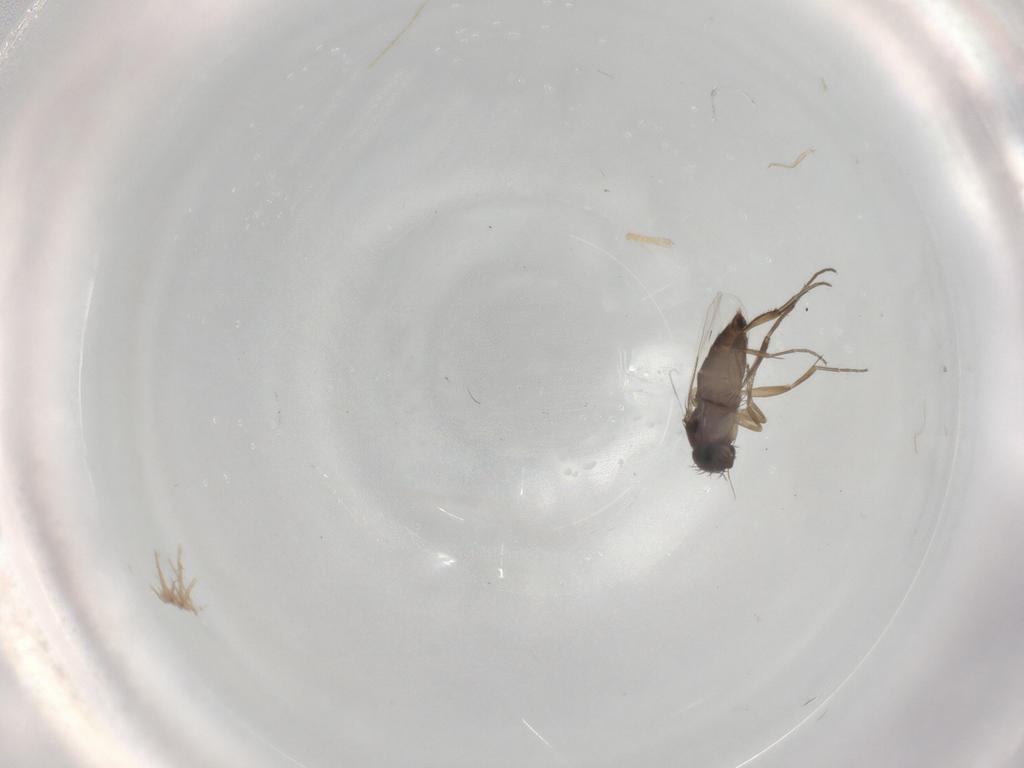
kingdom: Animalia
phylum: Arthropoda
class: Insecta
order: Diptera
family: Phoridae
